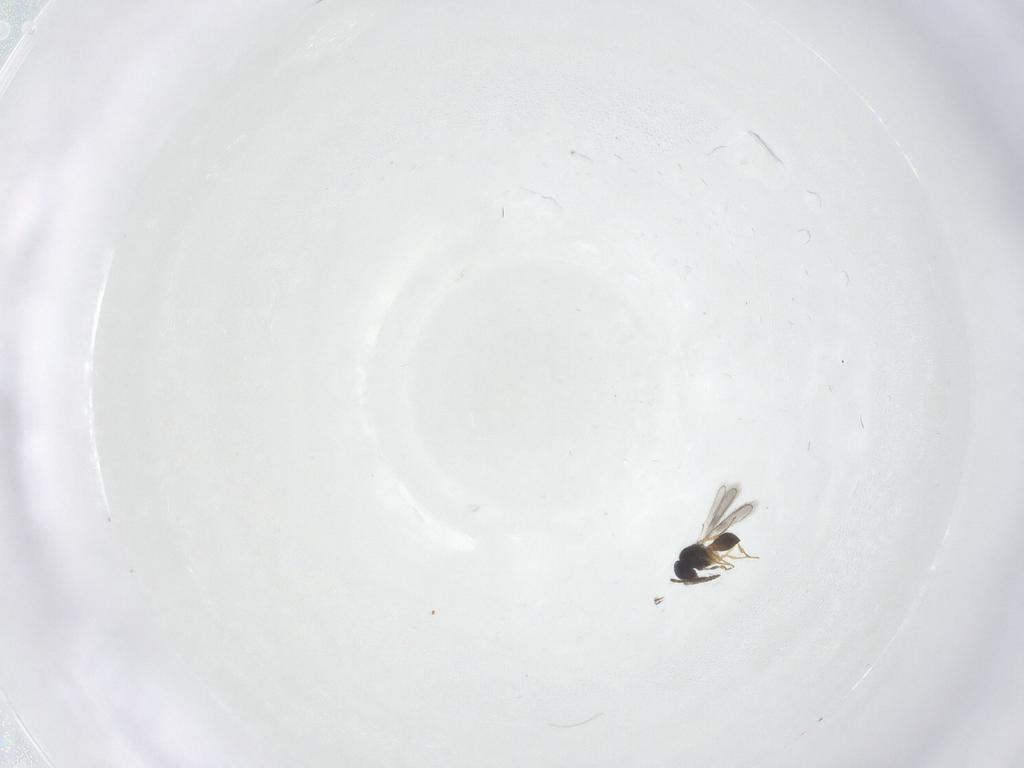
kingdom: Animalia
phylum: Arthropoda
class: Insecta
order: Hymenoptera
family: Scelionidae
